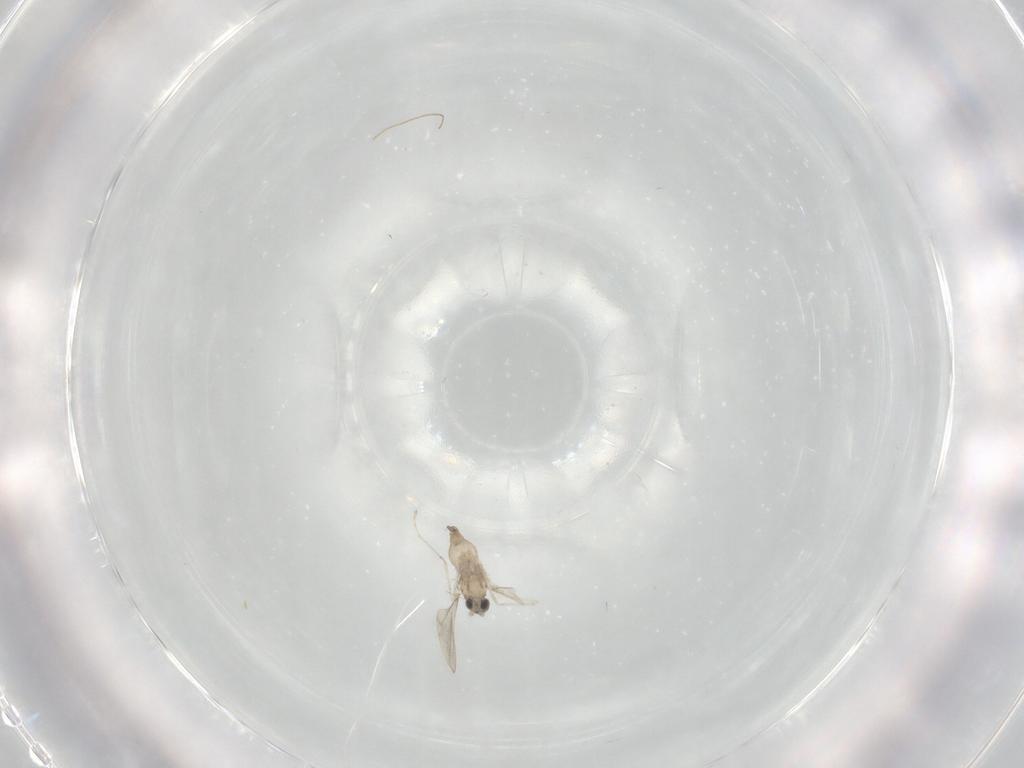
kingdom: Animalia
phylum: Arthropoda
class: Insecta
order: Diptera
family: Cecidomyiidae
